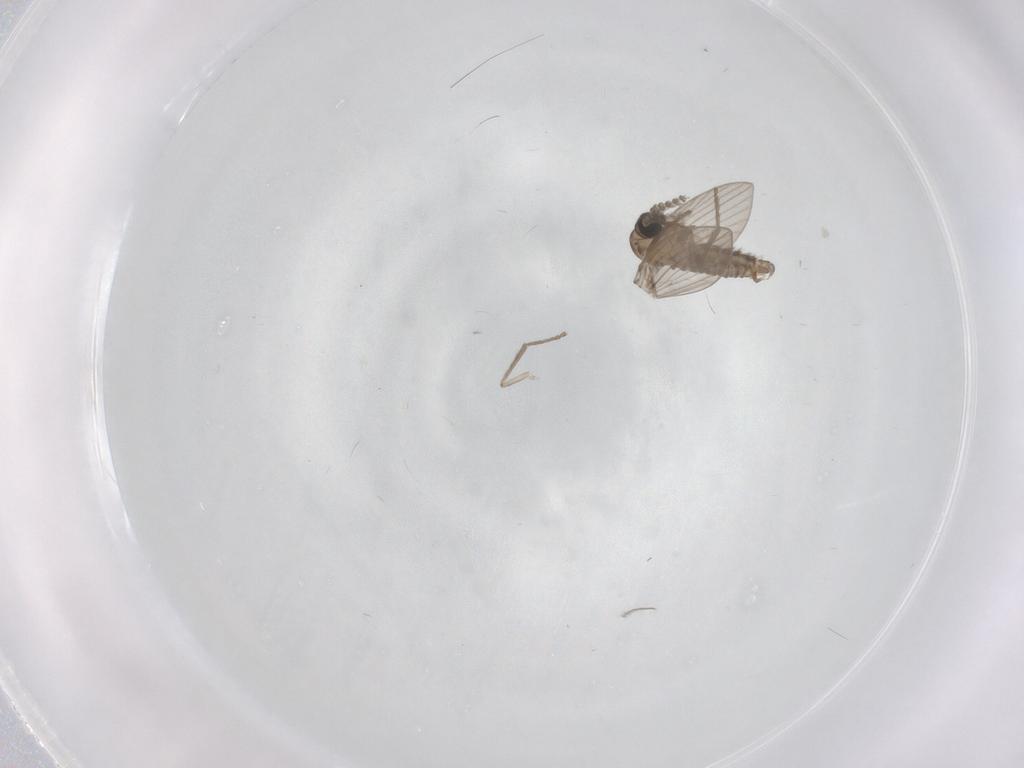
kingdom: Animalia
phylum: Arthropoda
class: Insecta
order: Diptera
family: Psychodidae
